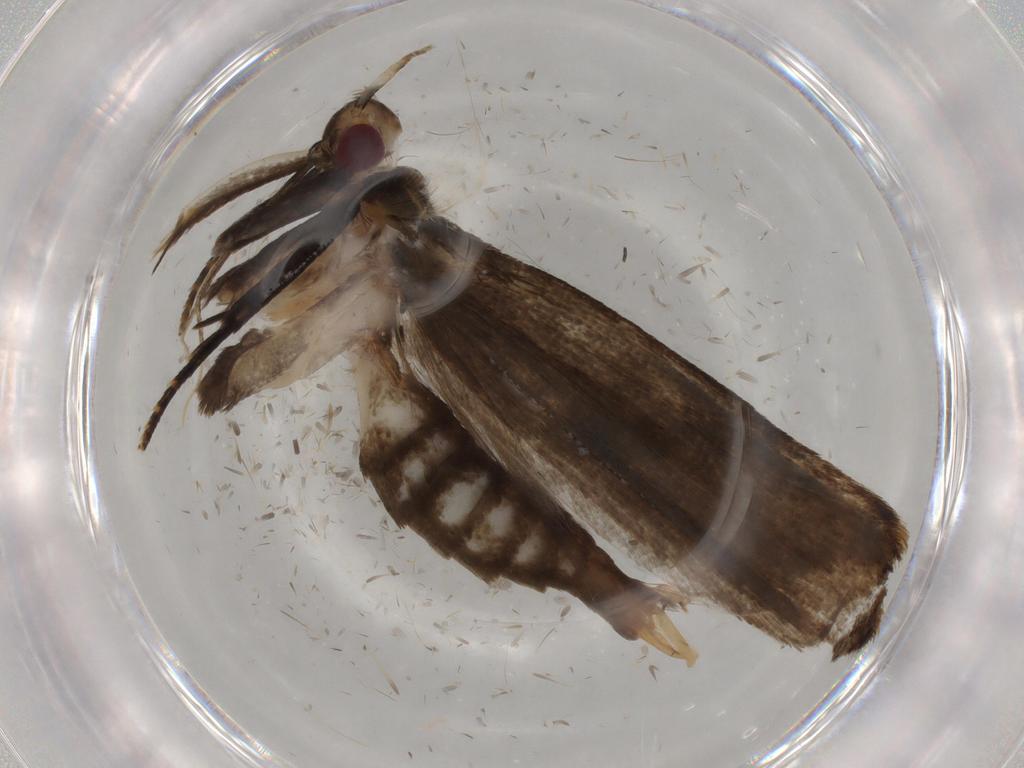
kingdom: Animalia
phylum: Arthropoda
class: Insecta
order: Lepidoptera
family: Gelechiidae
